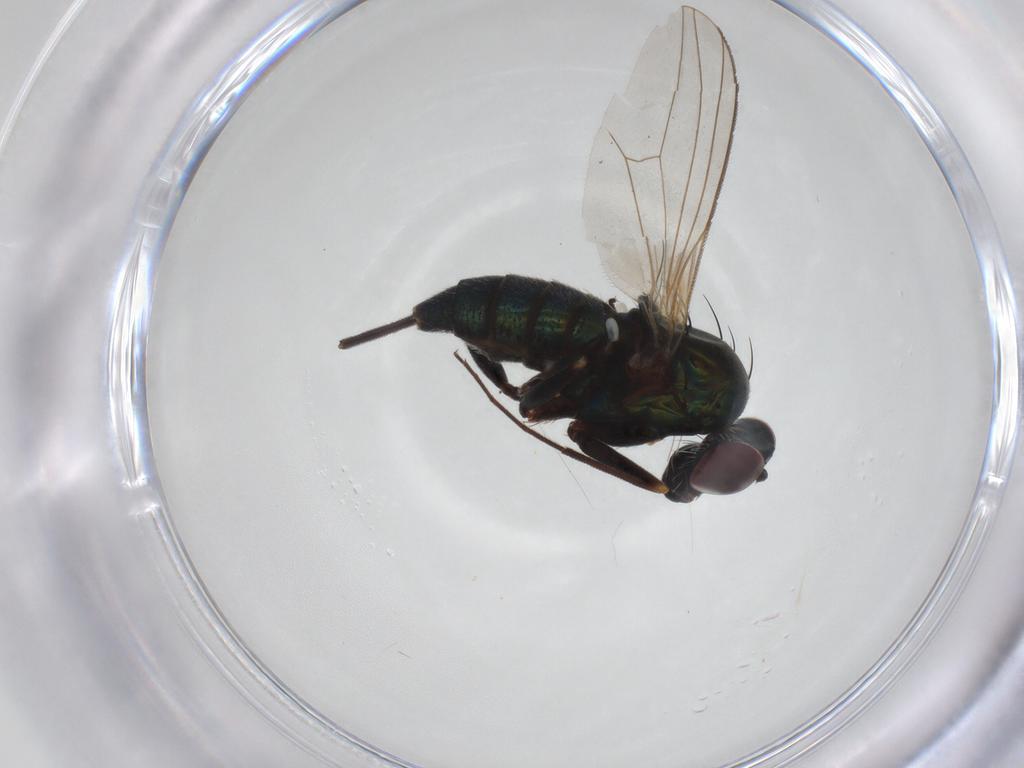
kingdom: Animalia
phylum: Arthropoda
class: Insecta
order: Diptera
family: Dolichopodidae
